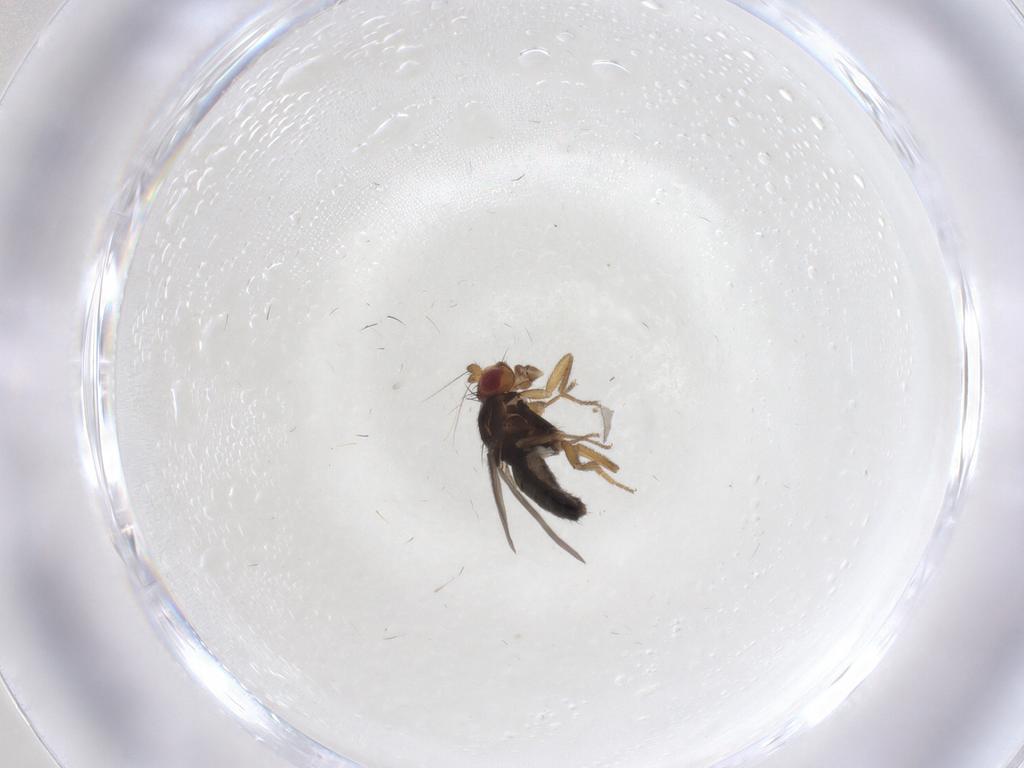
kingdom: Animalia
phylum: Arthropoda
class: Insecta
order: Diptera
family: Sphaeroceridae
